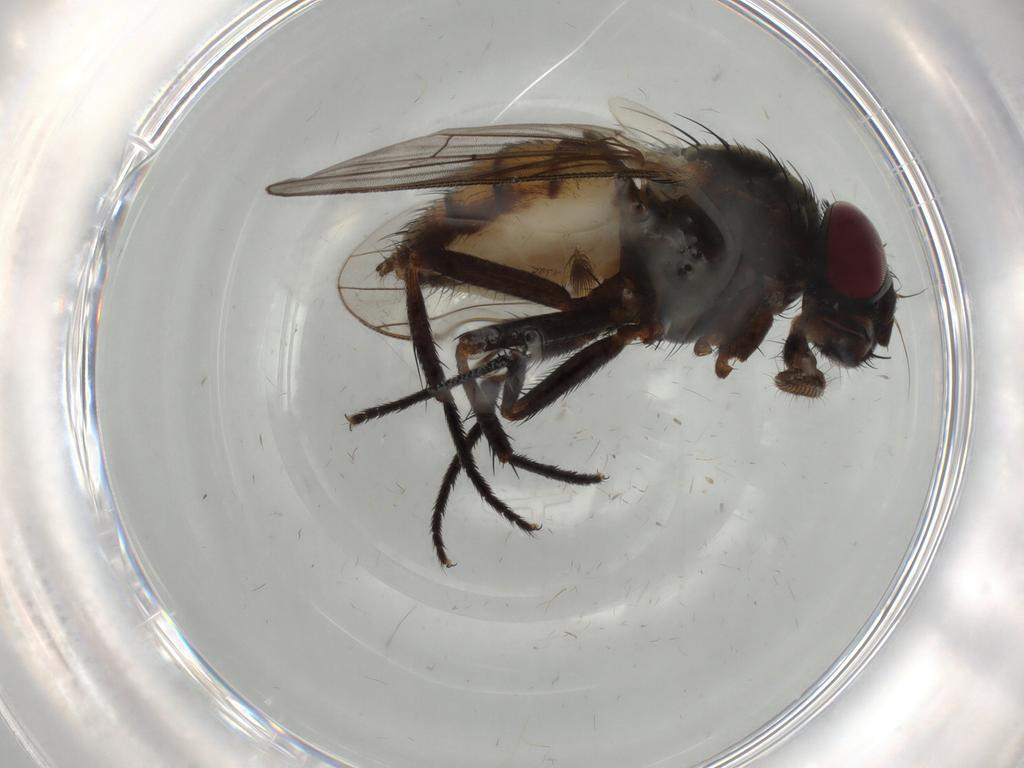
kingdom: Animalia
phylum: Arthropoda
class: Insecta
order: Diptera
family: Fannia
